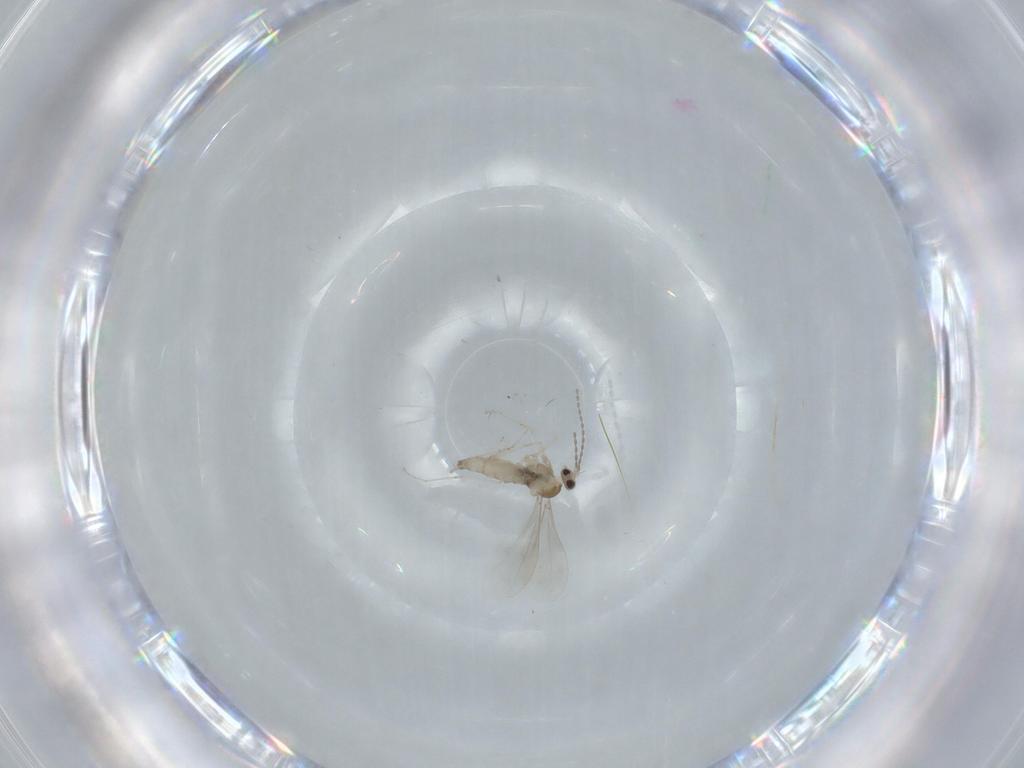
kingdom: Animalia
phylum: Arthropoda
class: Insecta
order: Diptera
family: Cecidomyiidae
